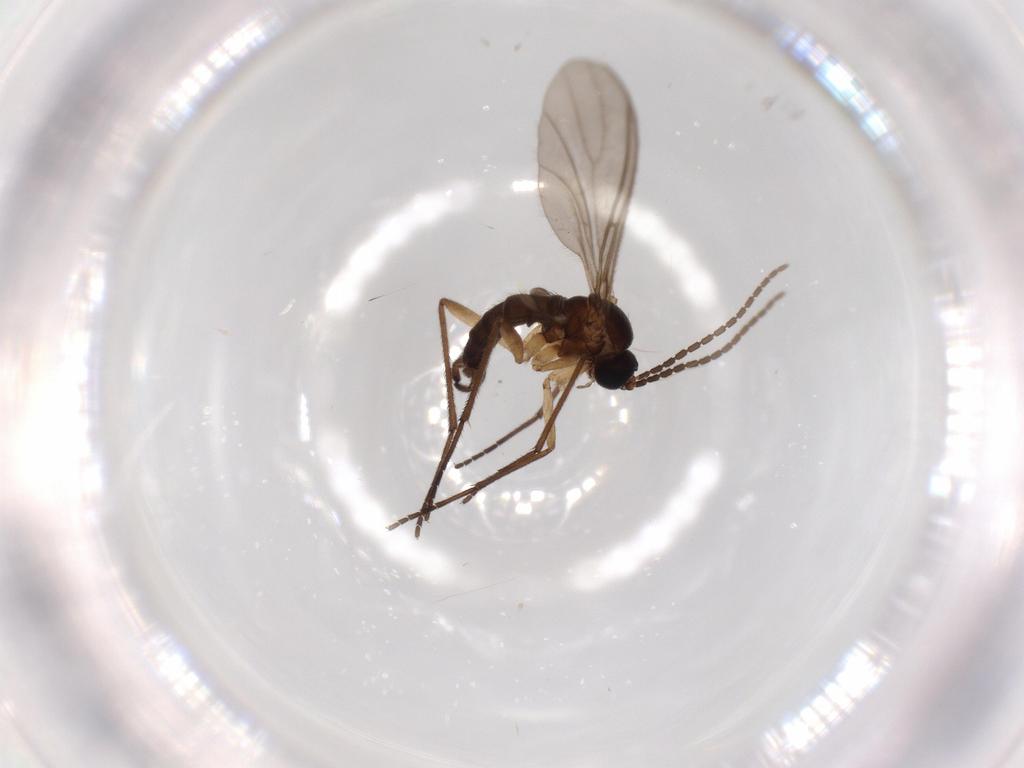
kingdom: Animalia
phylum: Arthropoda
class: Insecta
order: Diptera
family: Sciaridae
